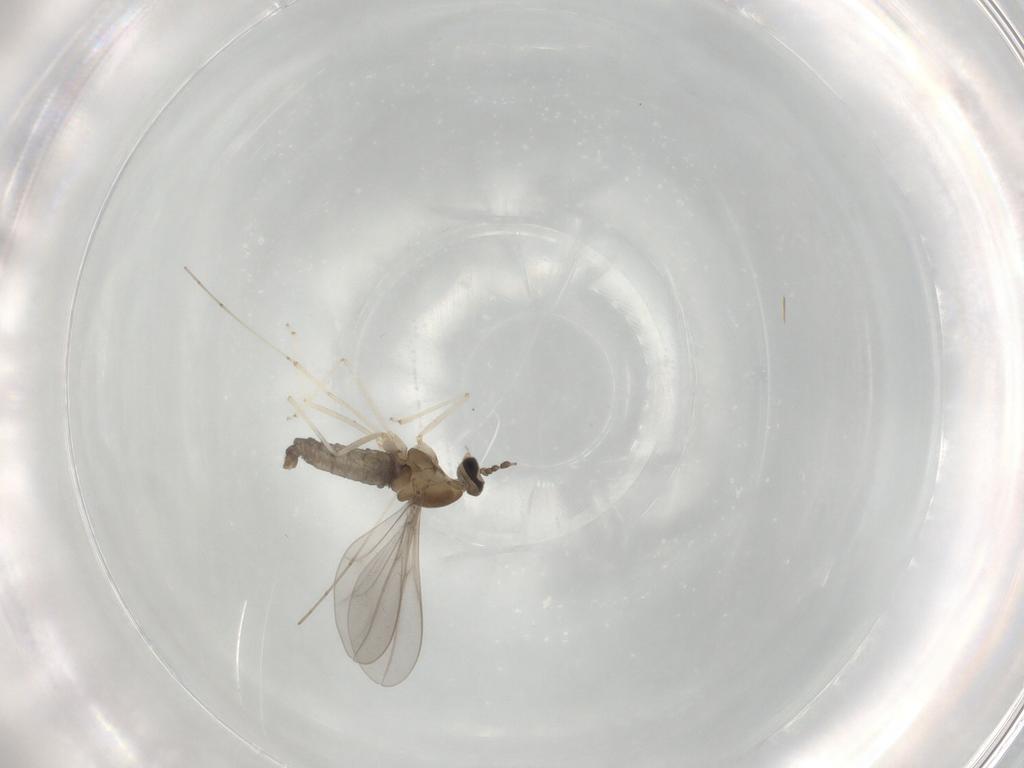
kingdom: Animalia
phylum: Arthropoda
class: Insecta
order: Diptera
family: Cecidomyiidae
